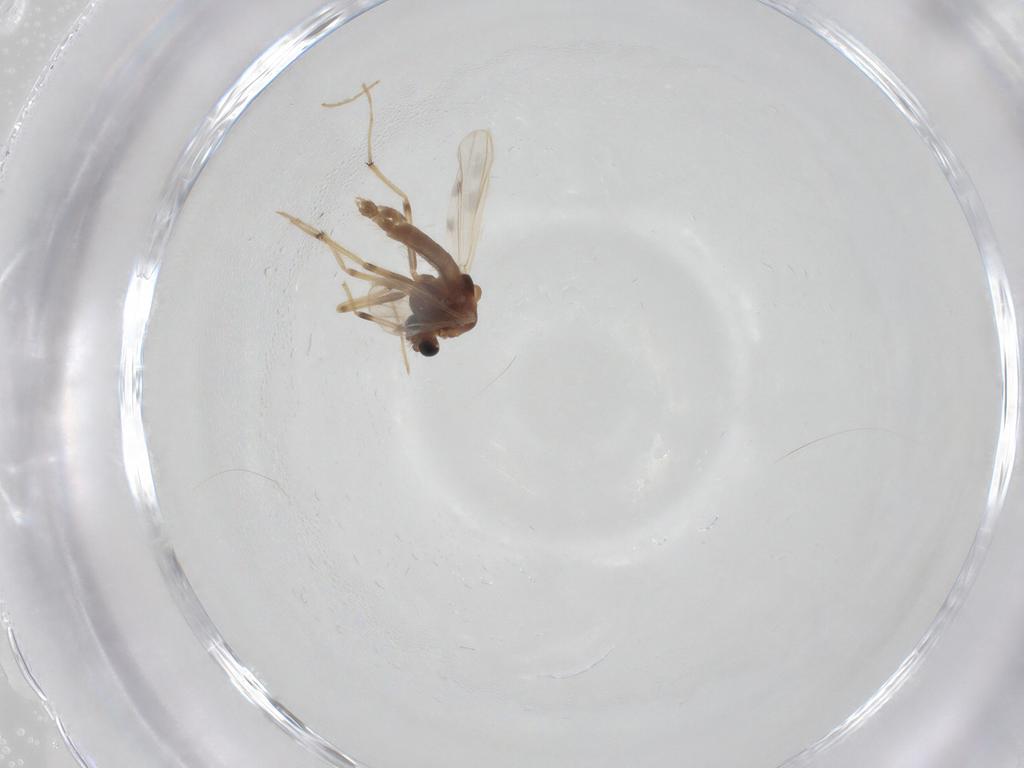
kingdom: Animalia
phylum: Arthropoda
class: Insecta
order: Diptera
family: Chironomidae
